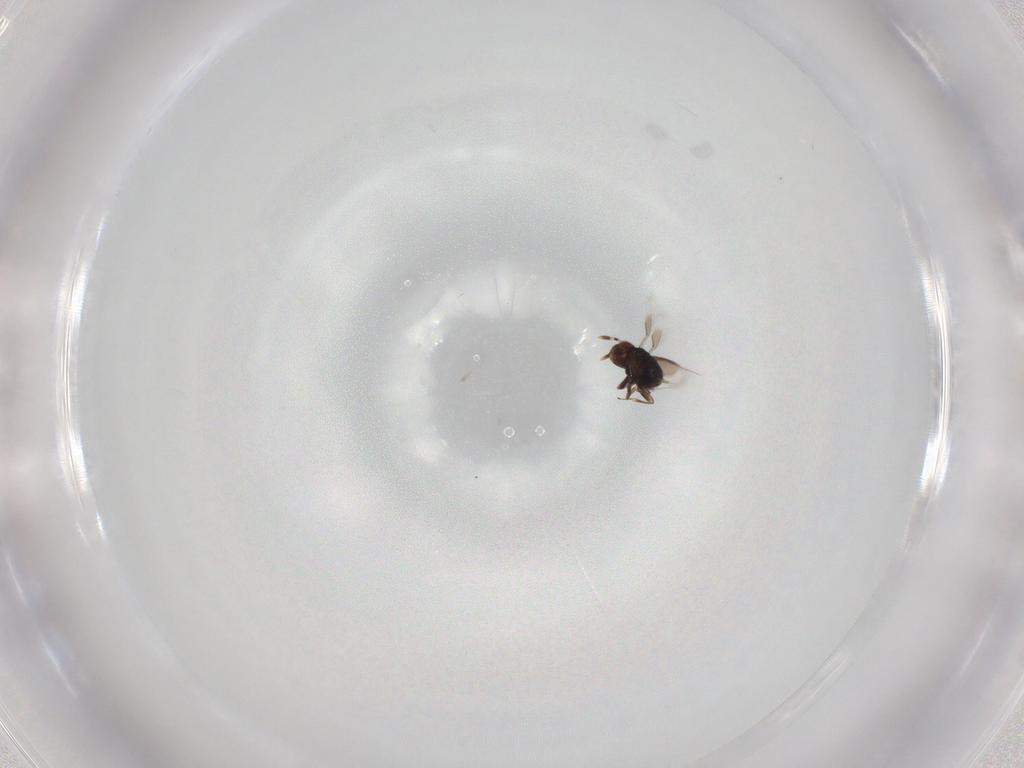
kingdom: Animalia
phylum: Arthropoda
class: Insecta
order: Hymenoptera
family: Azotidae
